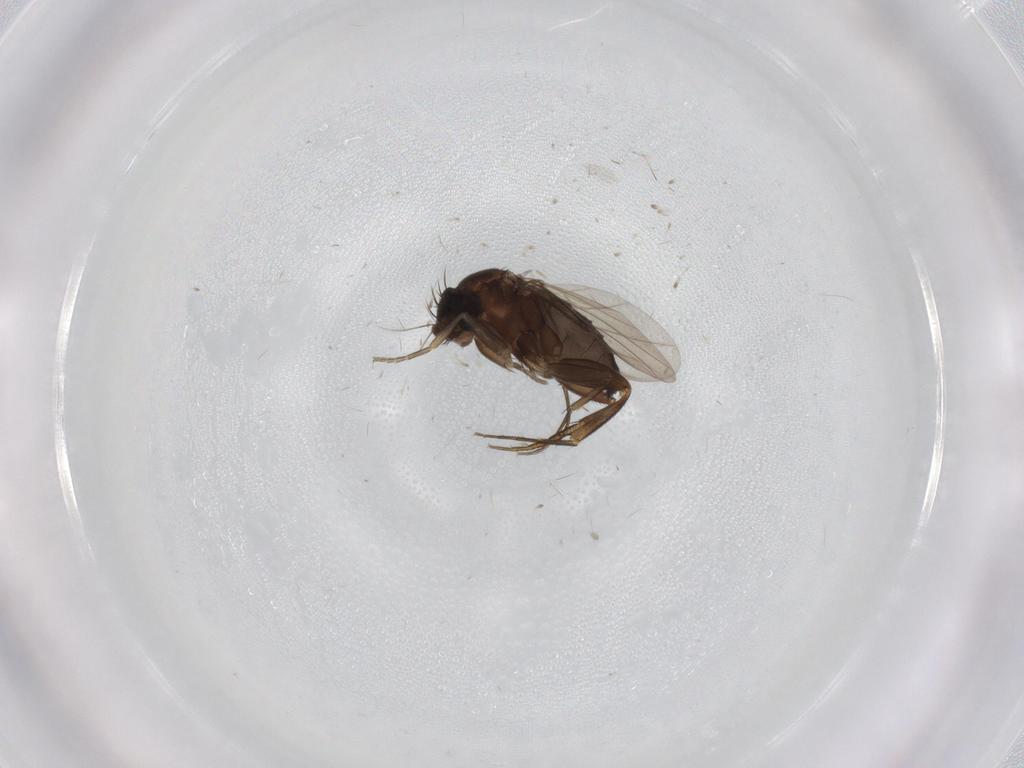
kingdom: Animalia
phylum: Arthropoda
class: Insecta
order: Diptera
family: Phoridae
